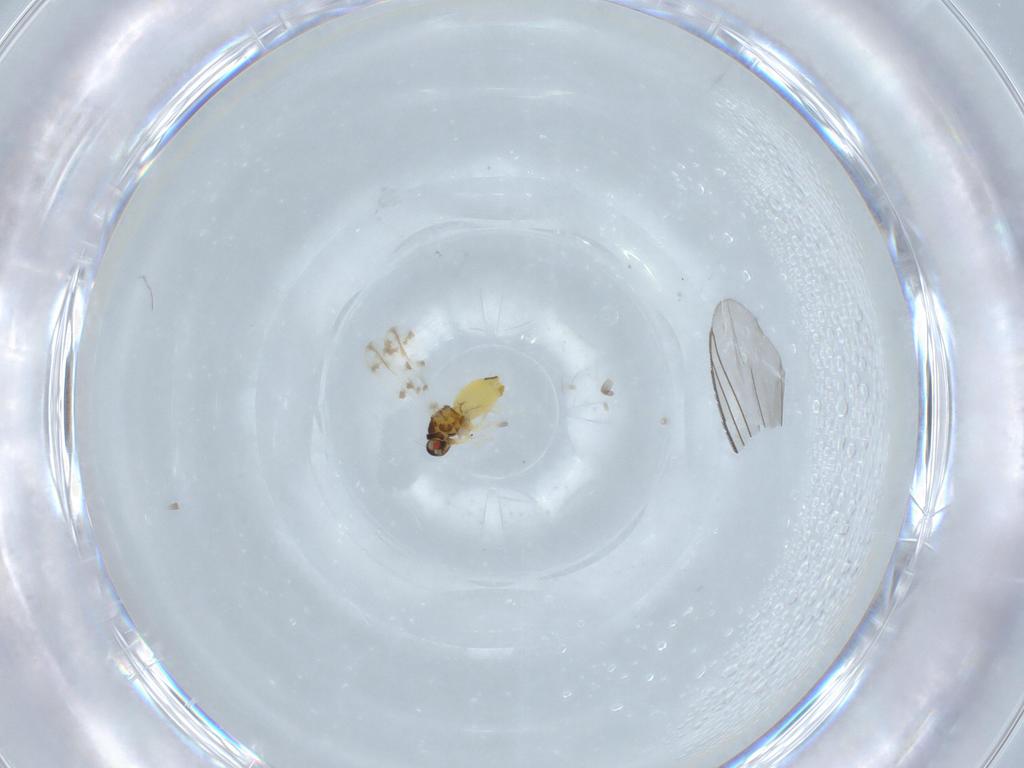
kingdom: Animalia
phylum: Arthropoda
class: Insecta
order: Hemiptera
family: Aleyrodidae
